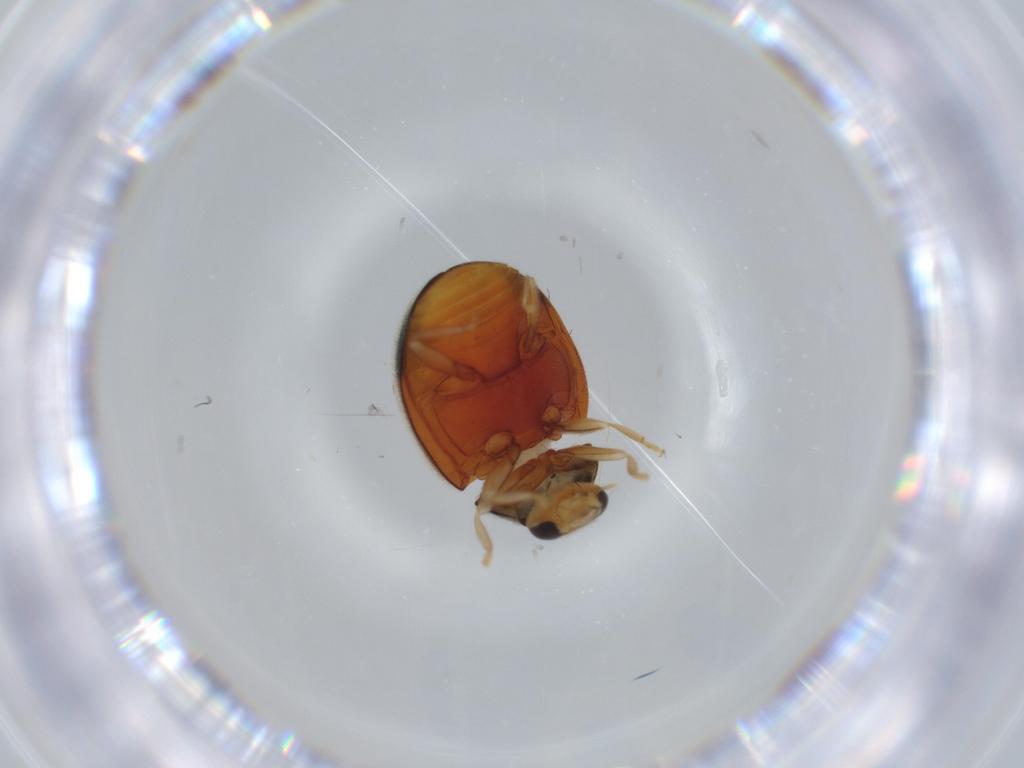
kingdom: Animalia
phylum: Arthropoda
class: Insecta
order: Coleoptera
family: Coccinellidae
